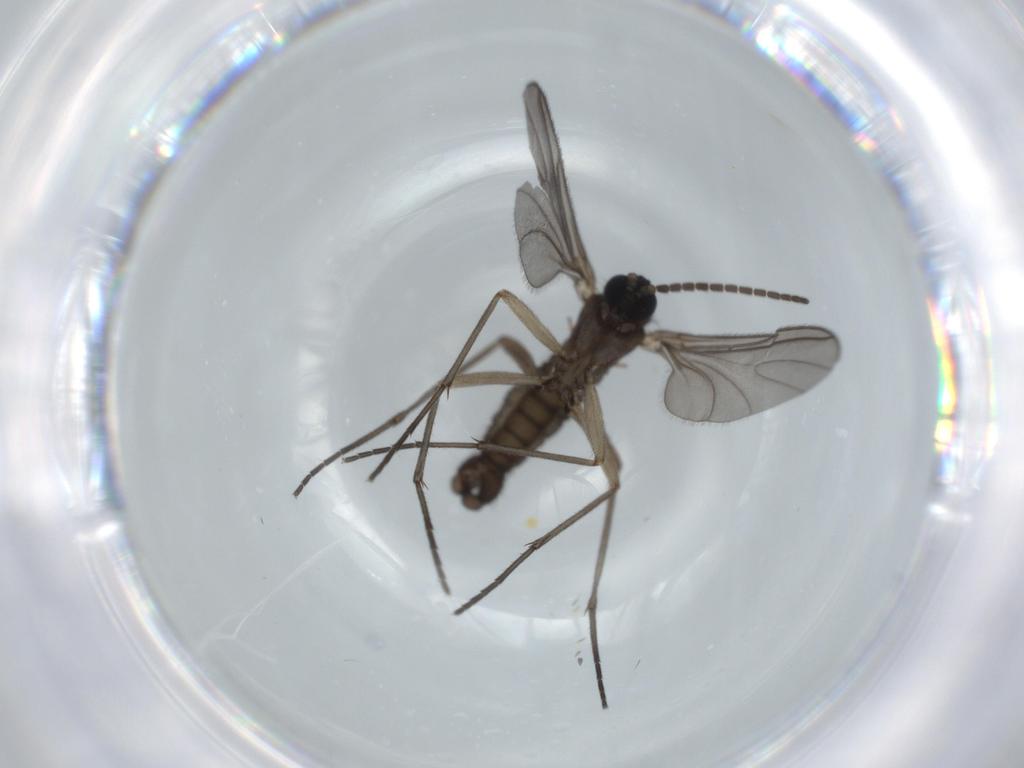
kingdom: Animalia
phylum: Arthropoda
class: Insecta
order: Diptera
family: Sciaridae
